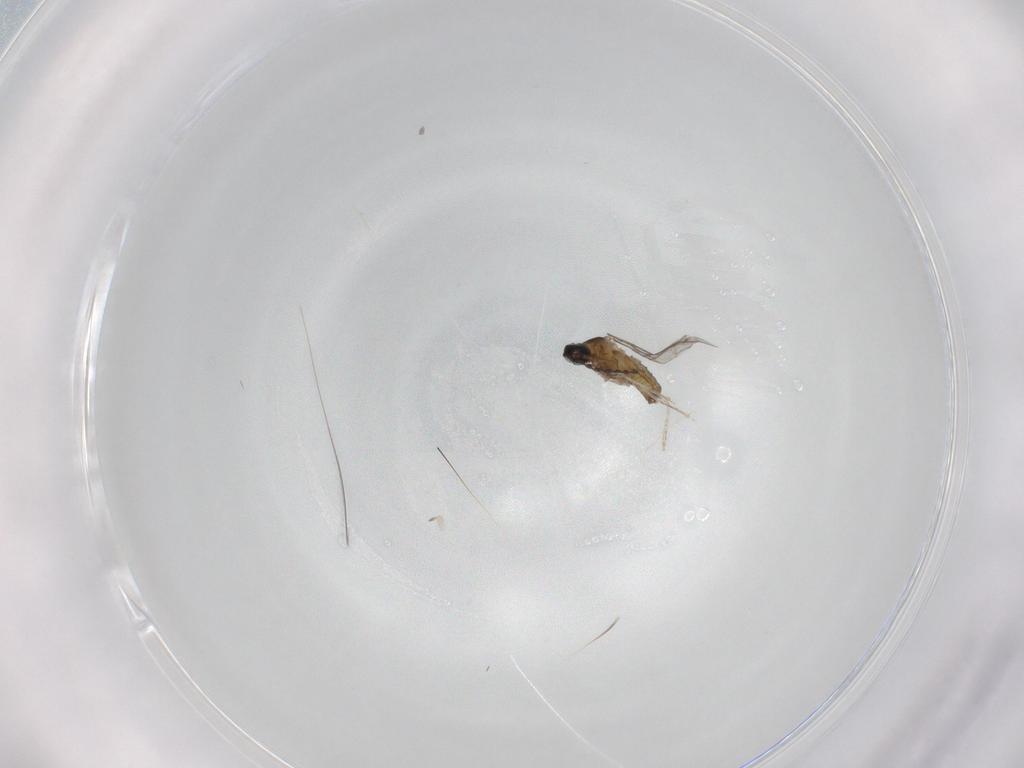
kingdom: Animalia
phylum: Arthropoda
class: Insecta
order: Diptera
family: Cecidomyiidae
